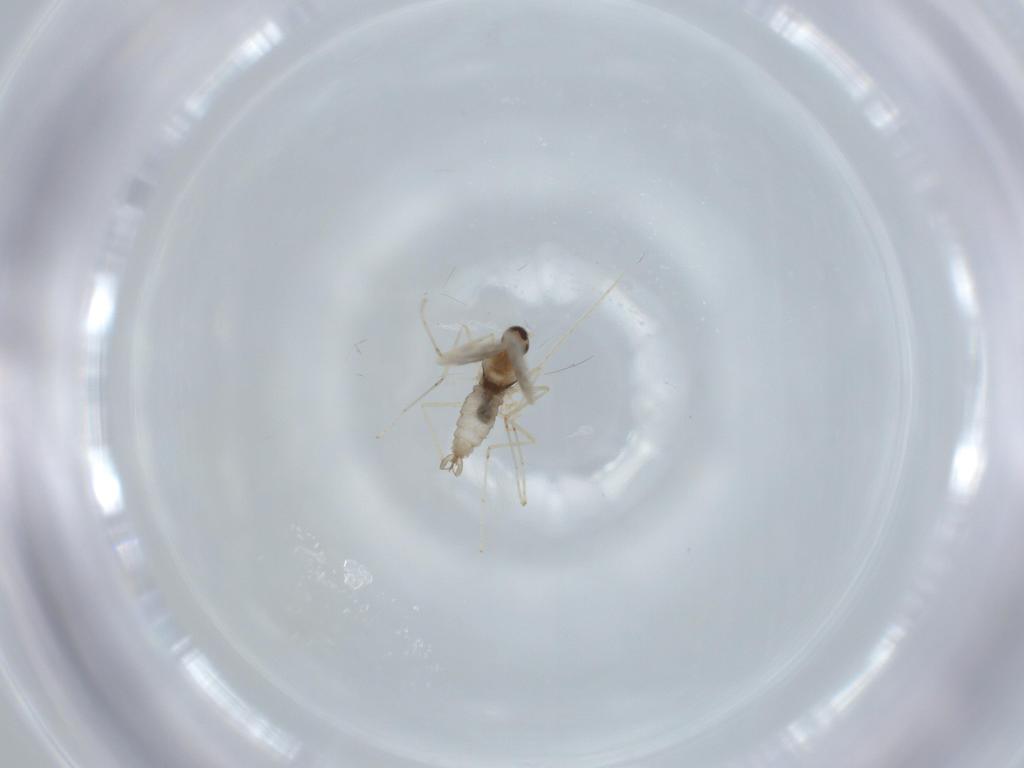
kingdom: Animalia
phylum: Arthropoda
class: Insecta
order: Diptera
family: Cecidomyiidae
